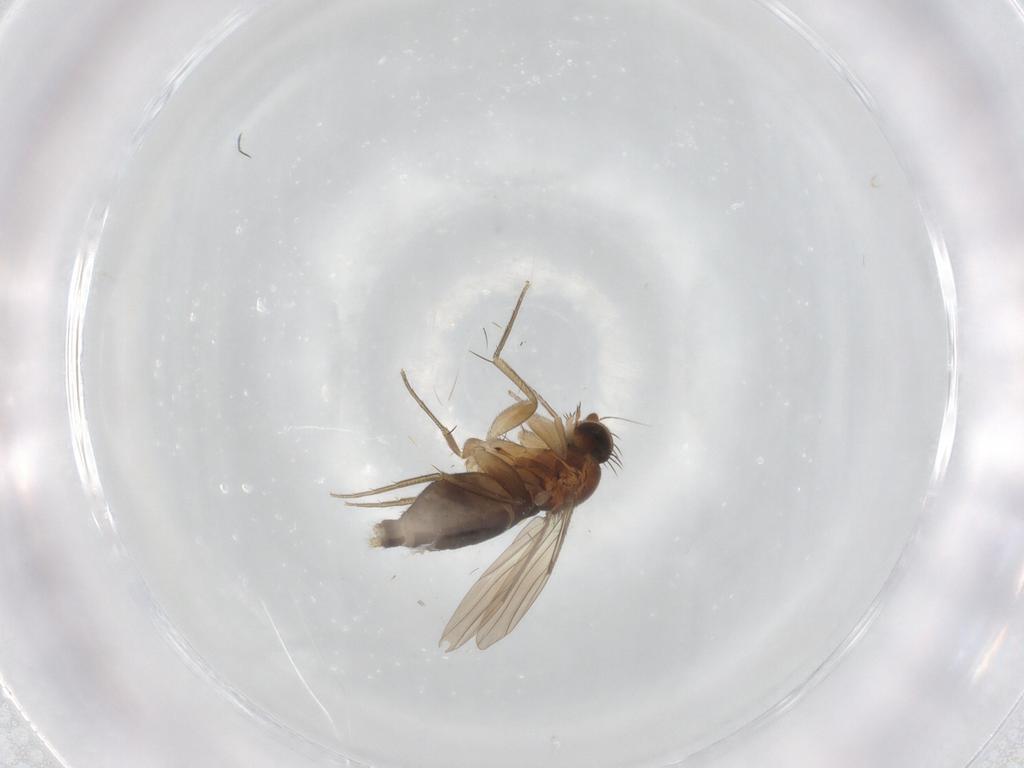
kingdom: Animalia
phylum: Arthropoda
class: Insecta
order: Diptera
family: Phoridae
